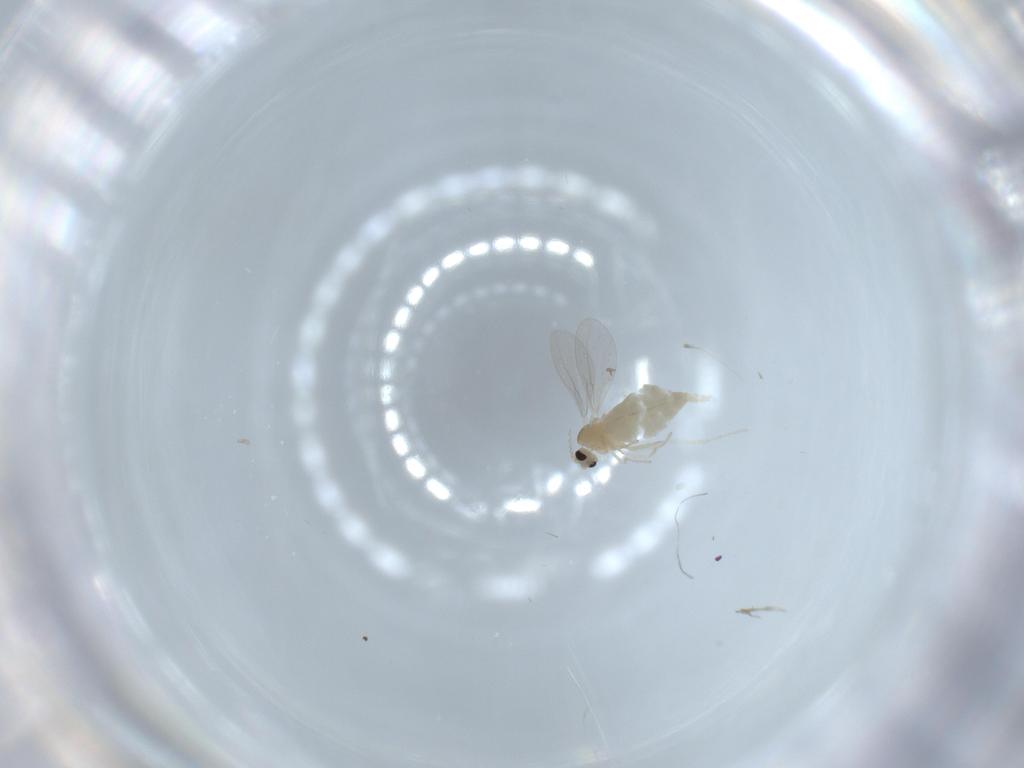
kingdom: Animalia
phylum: Arthropoda
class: Insecta
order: Diptera
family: Cecidomyiidae
